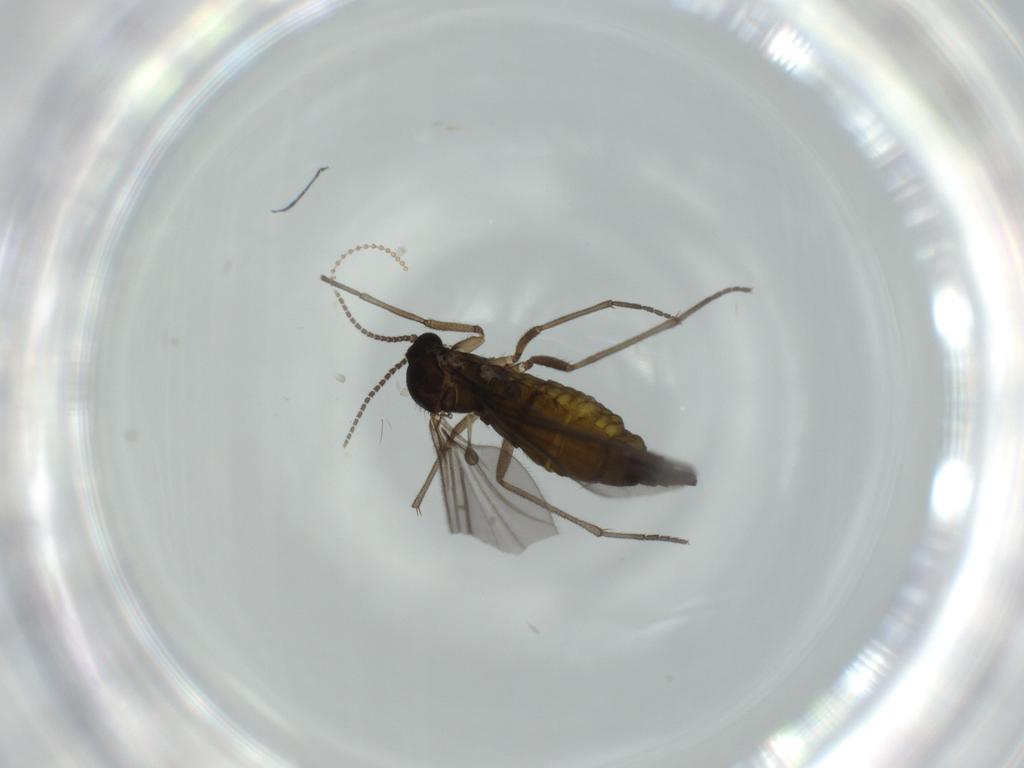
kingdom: Animalia
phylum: Arthropoda
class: Insecta
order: Diptera
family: Sciaridae
